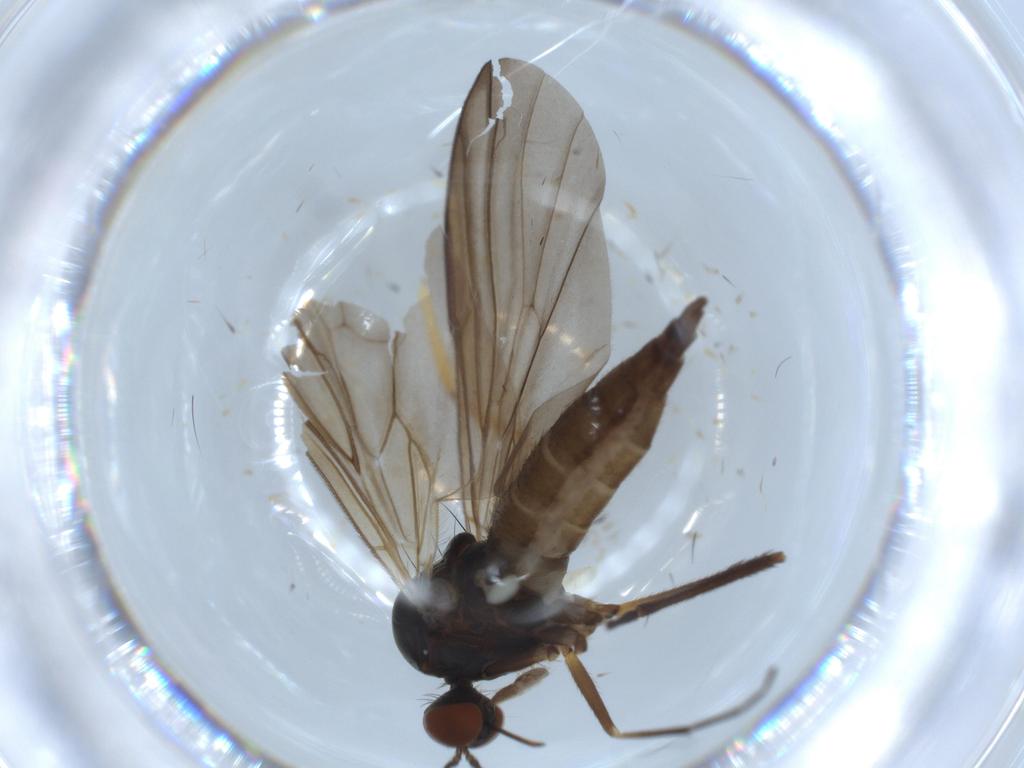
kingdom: Animalia
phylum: Arthropoda
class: Insecta
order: Diptera
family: Empididae
